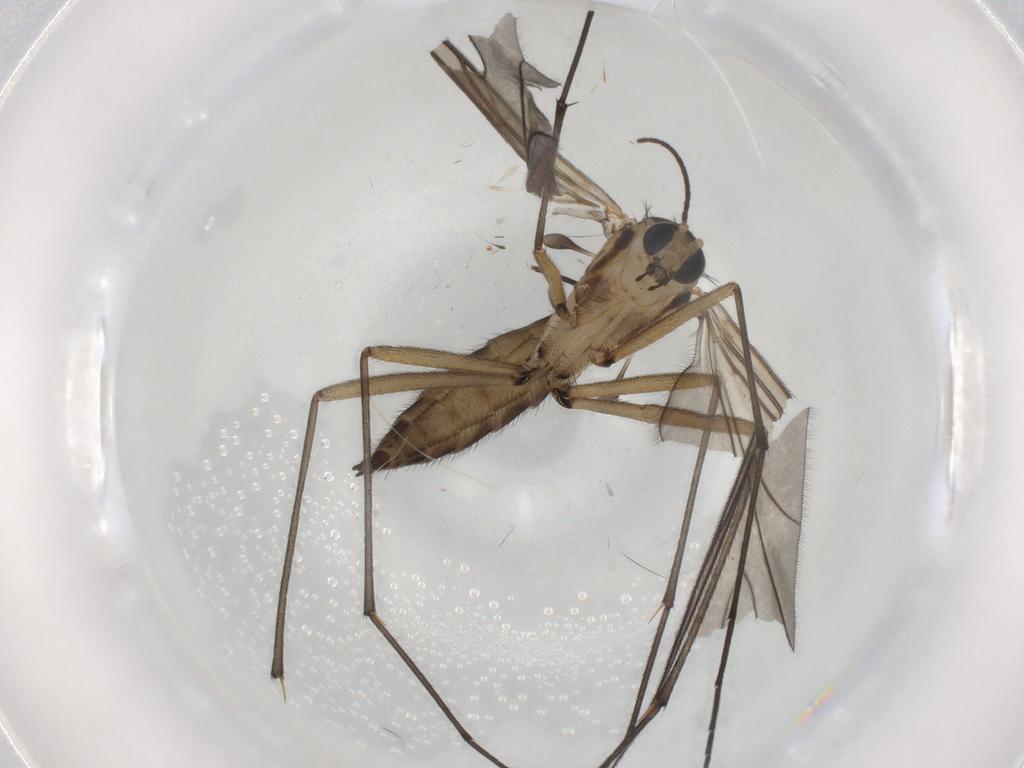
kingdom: Animalia
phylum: Arthropoda
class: Insecta
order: Diptera
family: Sciaridae
